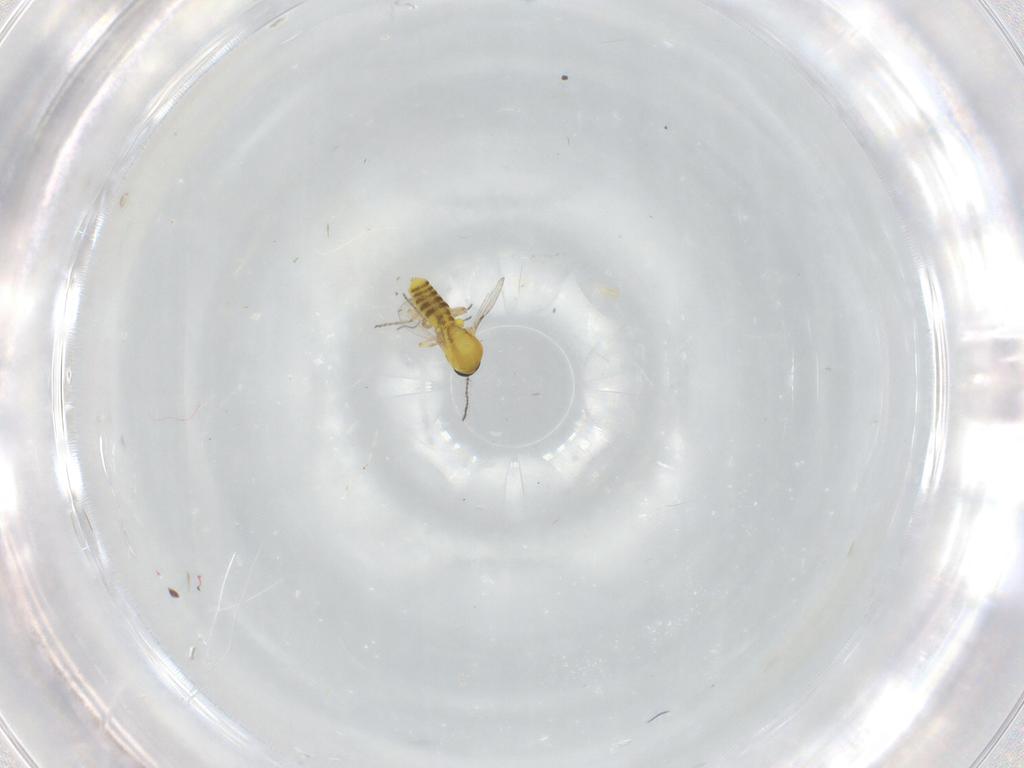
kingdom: Animalia
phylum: Arthropoda
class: Insecta
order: Diptera
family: Ceratopogonidae
